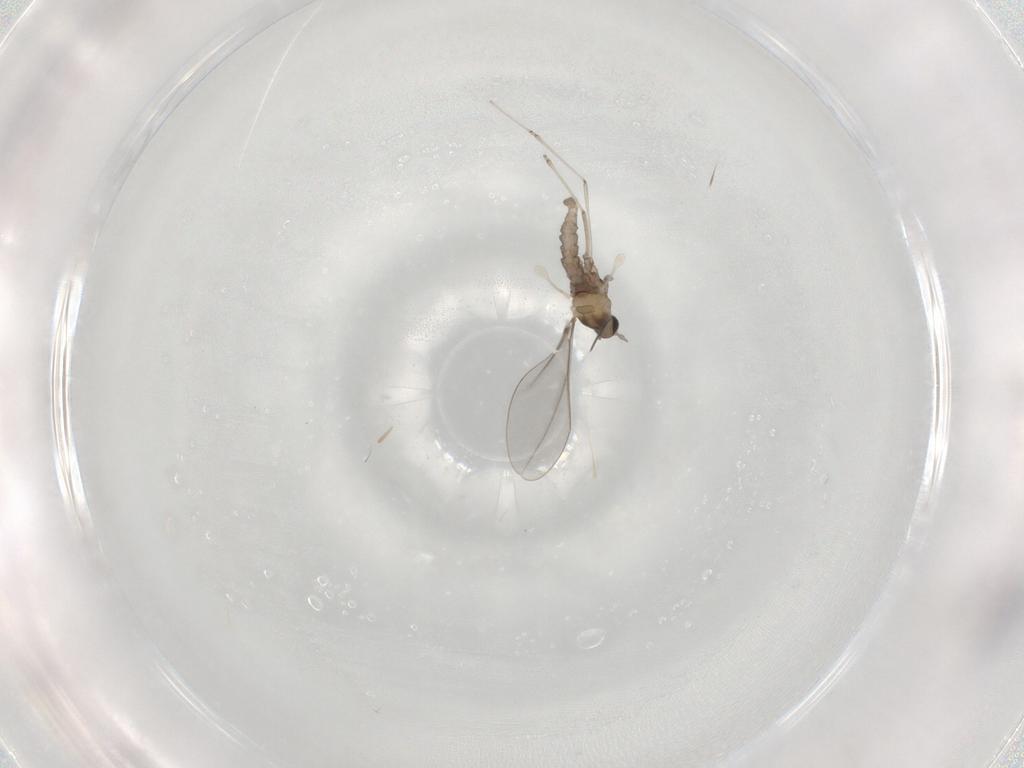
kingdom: Animalia
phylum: Arthropoda
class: Insecta
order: Diptera
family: Cecidomyiidae
